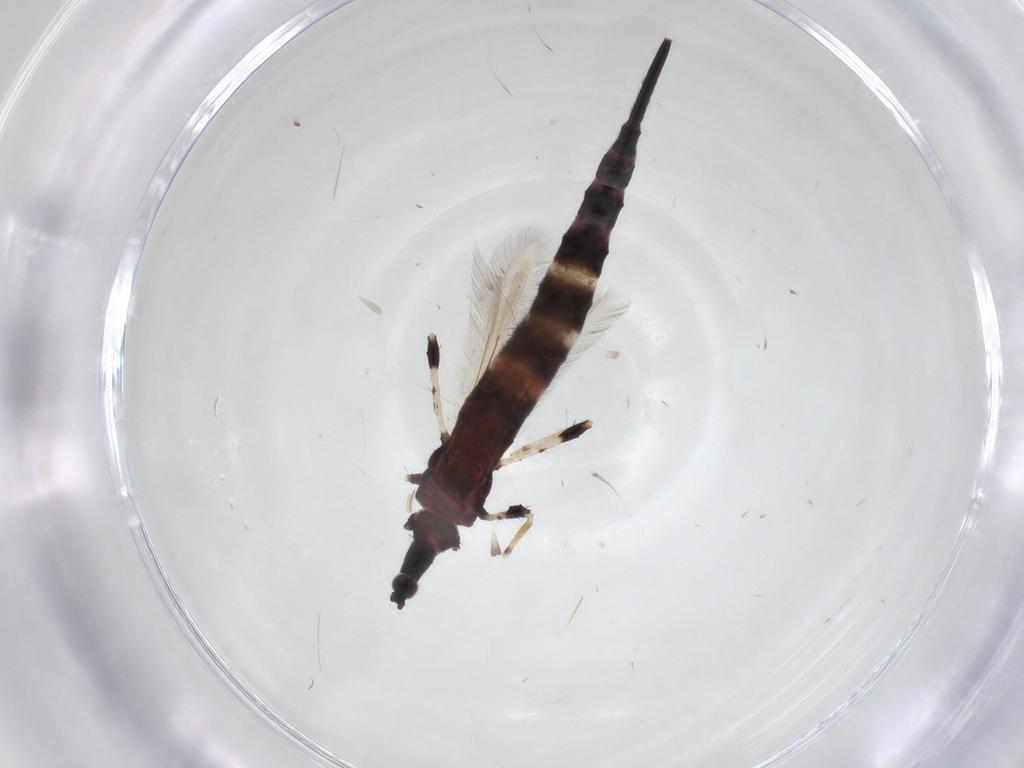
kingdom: Animalia
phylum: Arthropoda
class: Insecta
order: Thysanoptera
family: Phlaeothripidae
